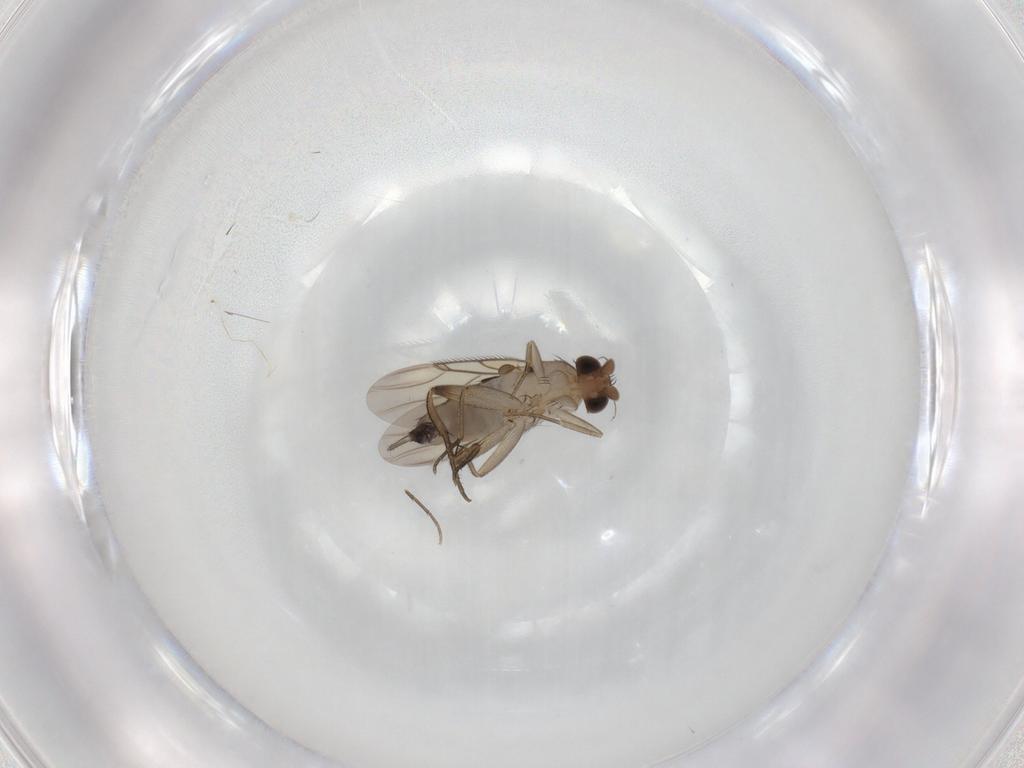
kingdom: Animalia
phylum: Arthropoda
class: Insecta
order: Diptera
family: Phoridae
